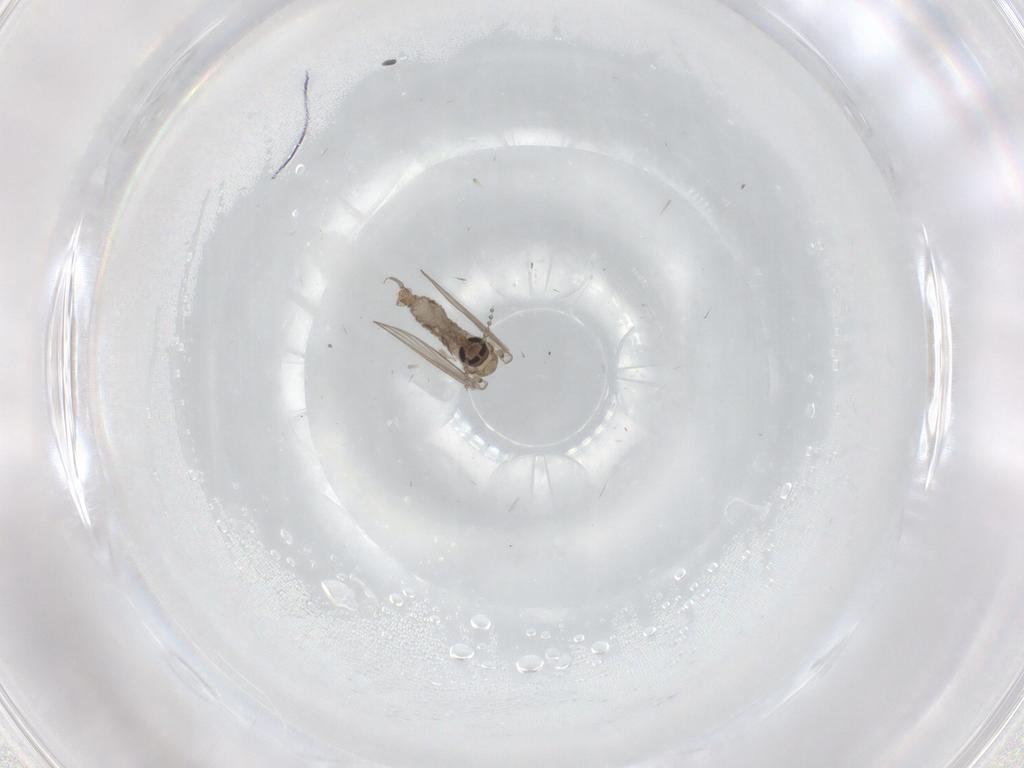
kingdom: Animalia
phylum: Arthropoda
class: Insecta
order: Diptera
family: Psychodidae
